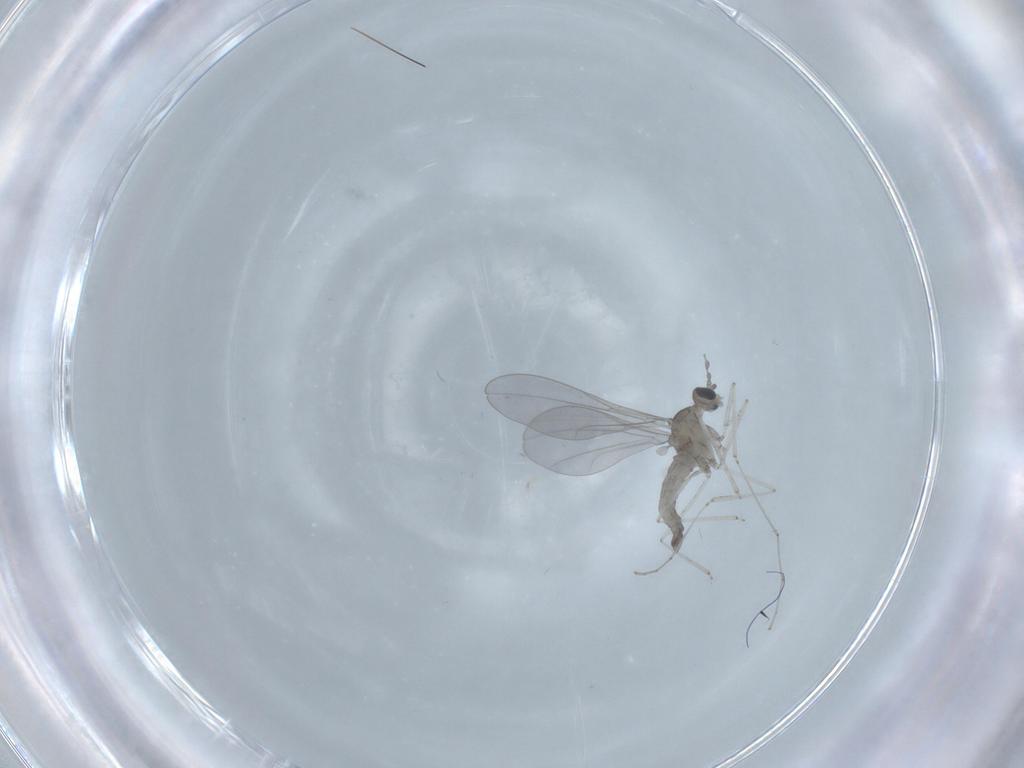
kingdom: Animalia
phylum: Arthropoda
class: Insecta
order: Diptera
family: Cecidomyiidae
